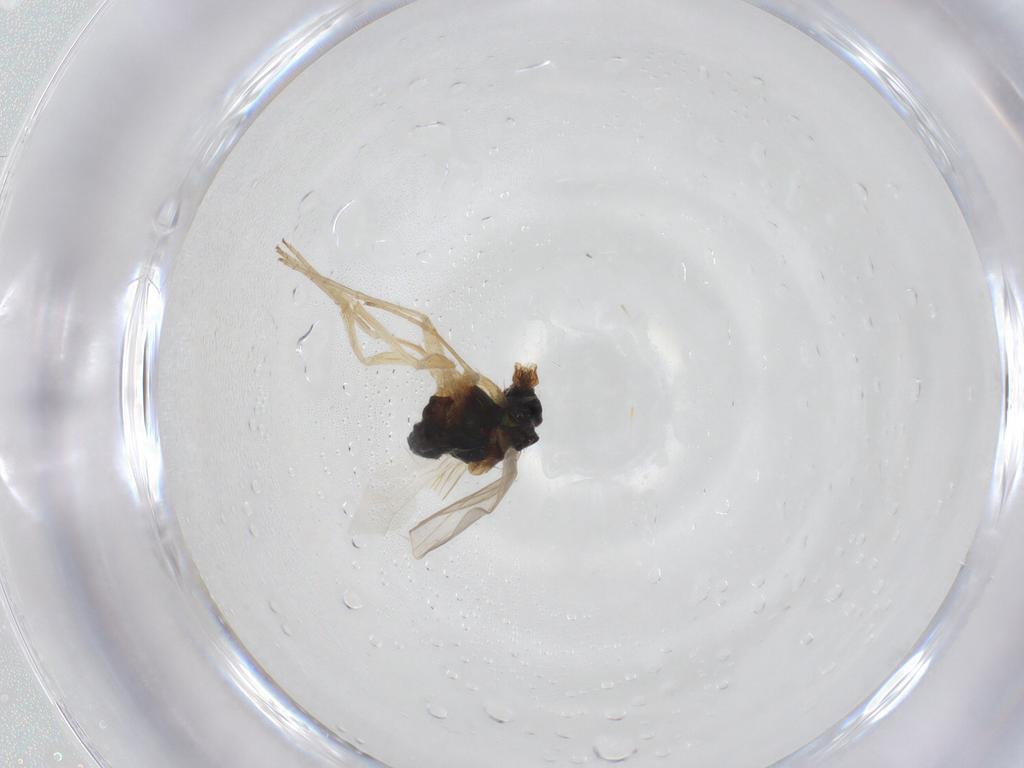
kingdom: Animalia
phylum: Arthropoda
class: Insecta
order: Diptera
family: Dolichopodidae
